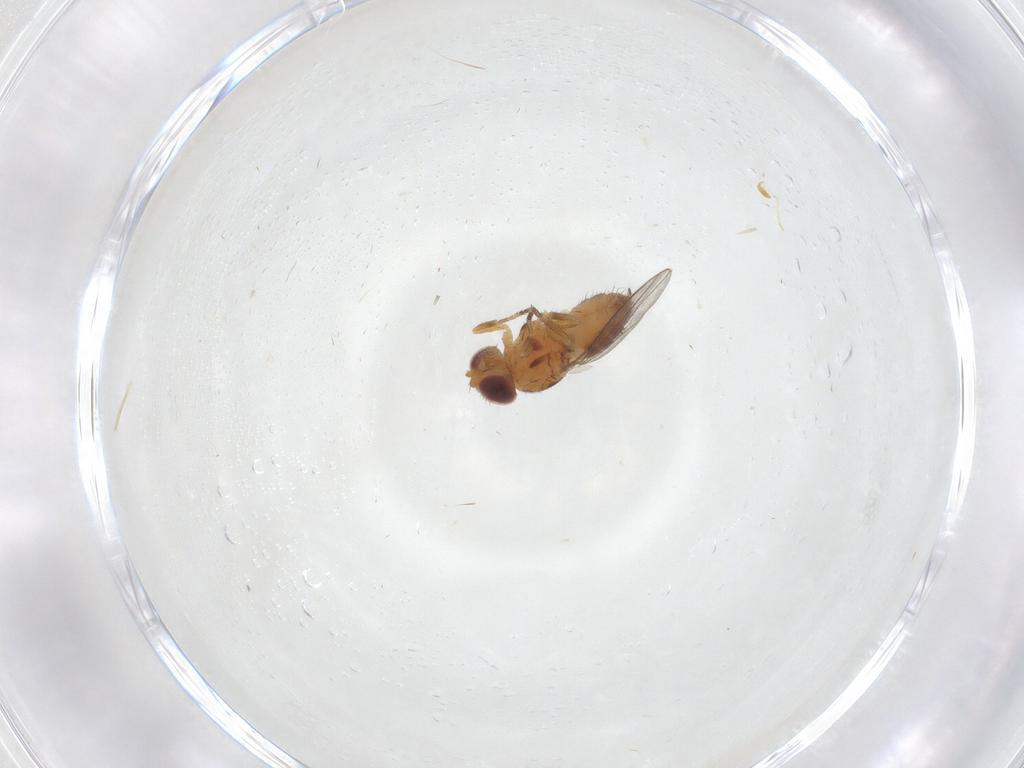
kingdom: Animalia
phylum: Arthropoda
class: Insecta
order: Diptera
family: Chloropidae
